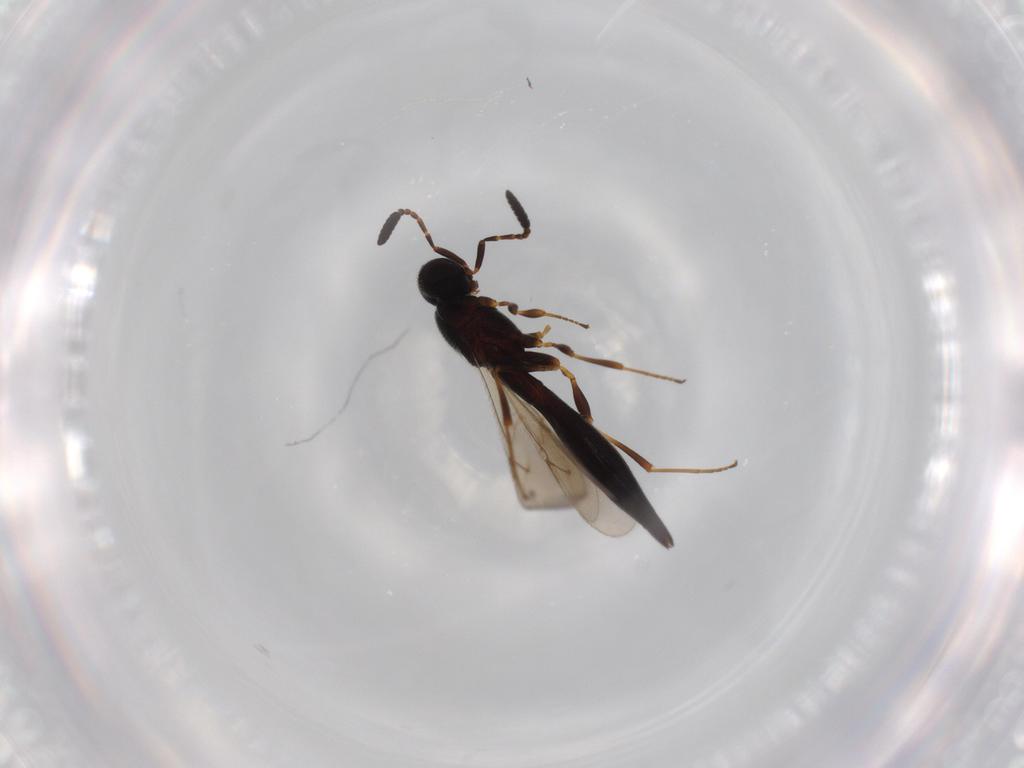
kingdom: Animalia
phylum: Arthropoda
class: Insecta
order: Hymenoptera
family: Scelionidae
